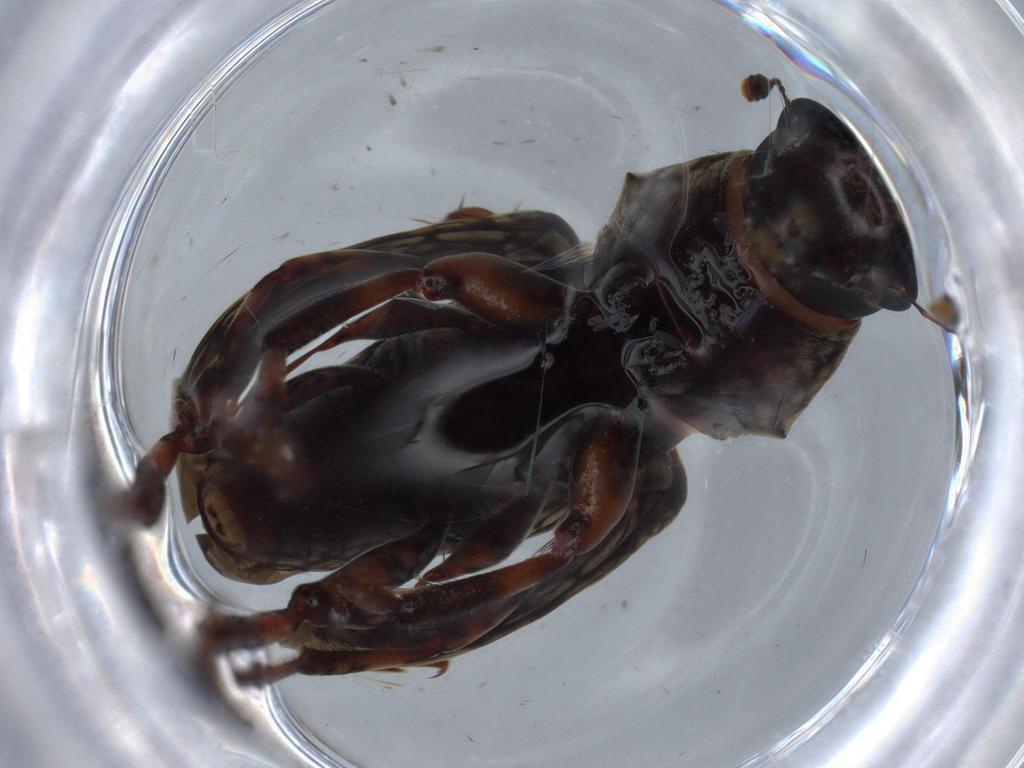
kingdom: Animalia
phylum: Arthropoda
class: Insecta
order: Coleoptera
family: Anthribidae
